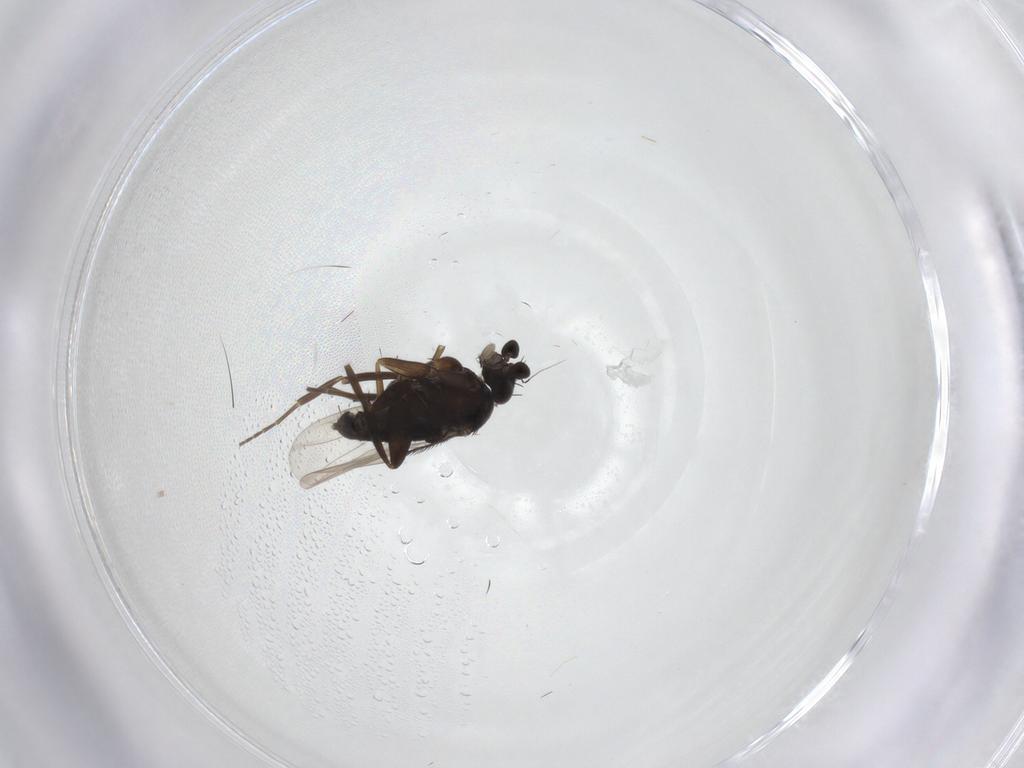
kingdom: Animalia
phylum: Arthropoda
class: Insecta
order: Diptera
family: Phoridae
